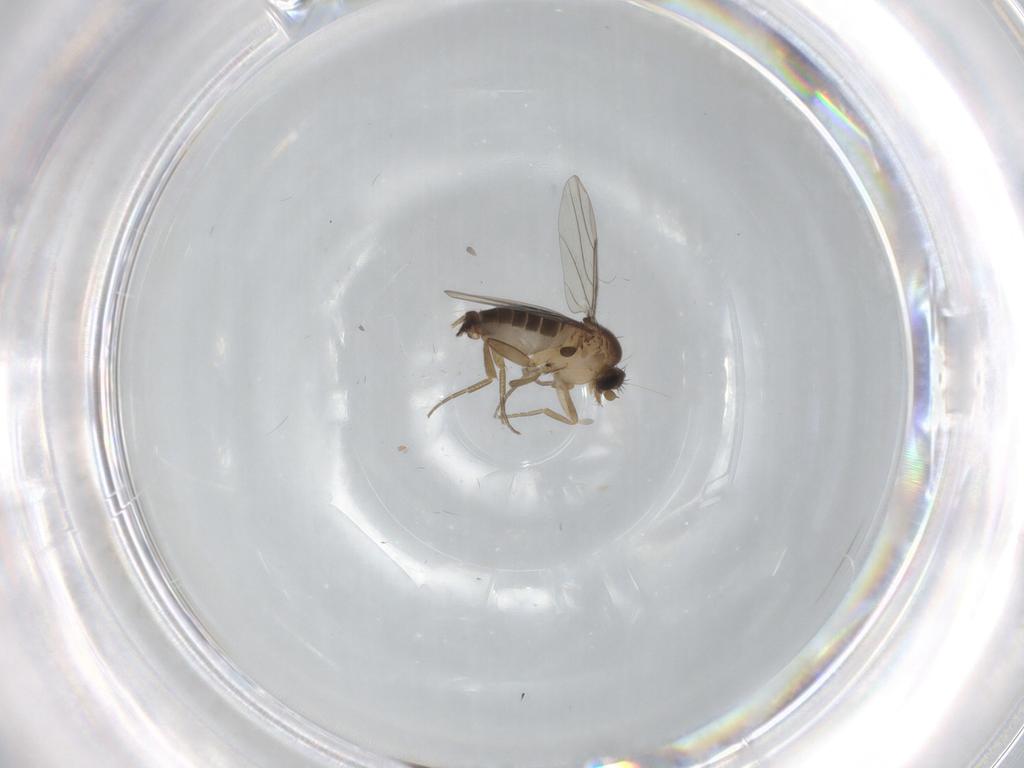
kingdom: Animalia
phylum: Arthropoda
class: Insecta
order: Diptera
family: Phoridae
